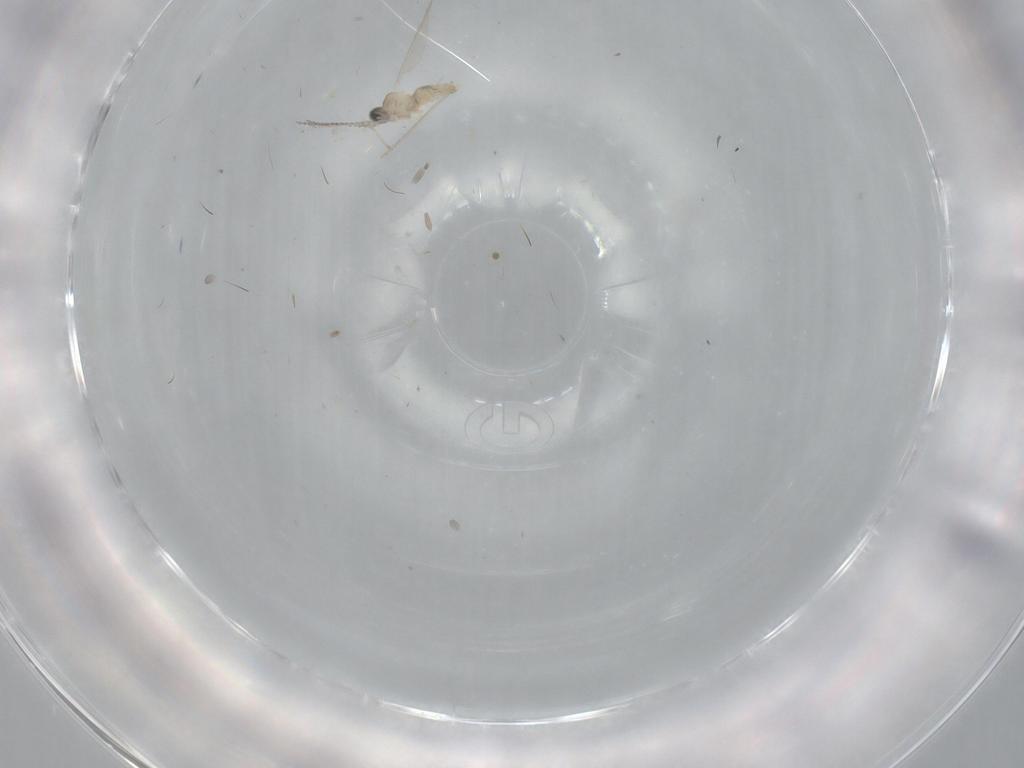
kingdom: Animalia
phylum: Arthropoda
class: Insecta
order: Diptera
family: Cecidomyiidae
